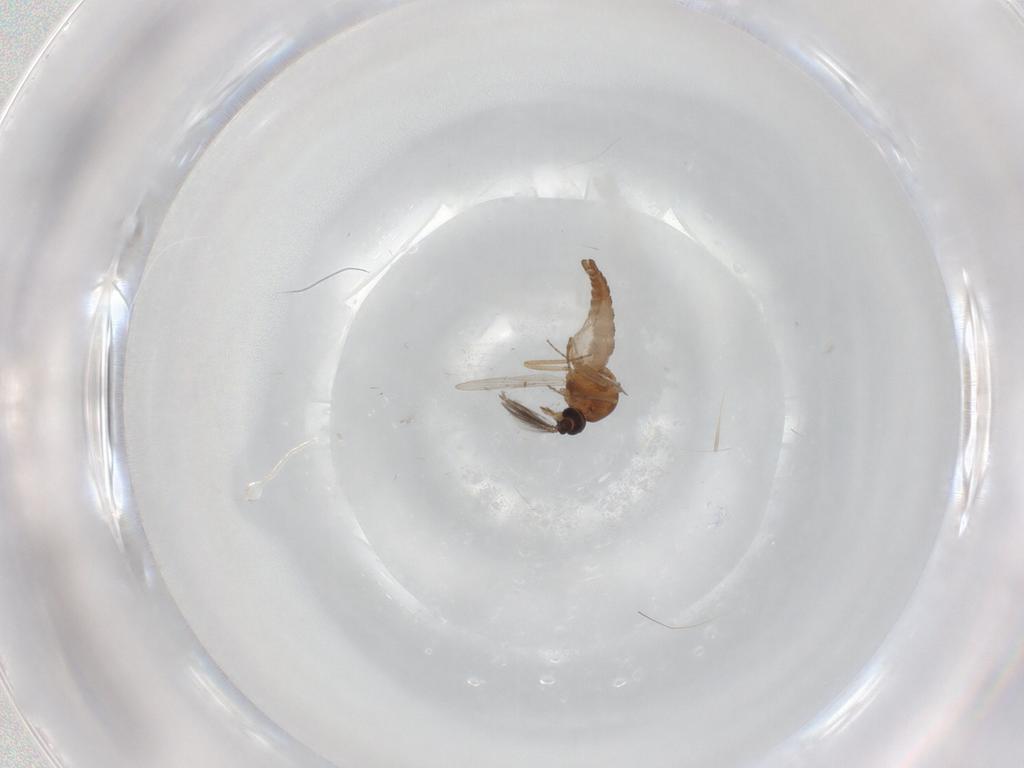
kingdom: Animalia
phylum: Arthropoda
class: Insecta
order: Diptera
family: Ceratopogonidae
